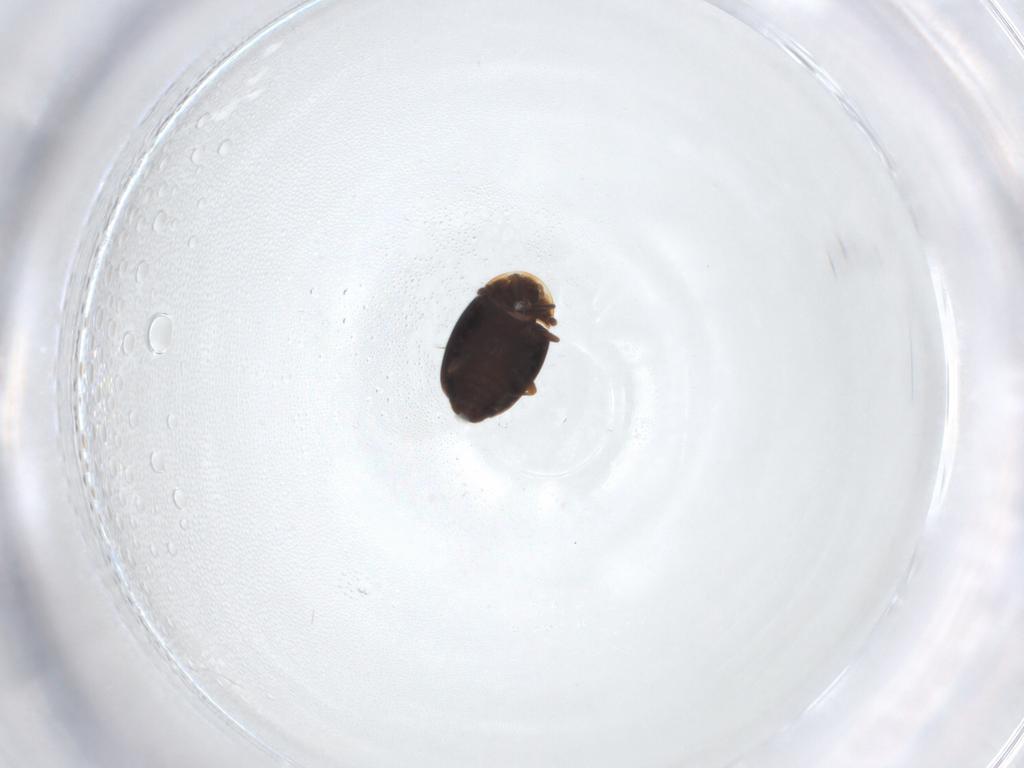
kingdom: Animalia
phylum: Arthropoda
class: Insecta
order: Coleoptera
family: Corylophidae
